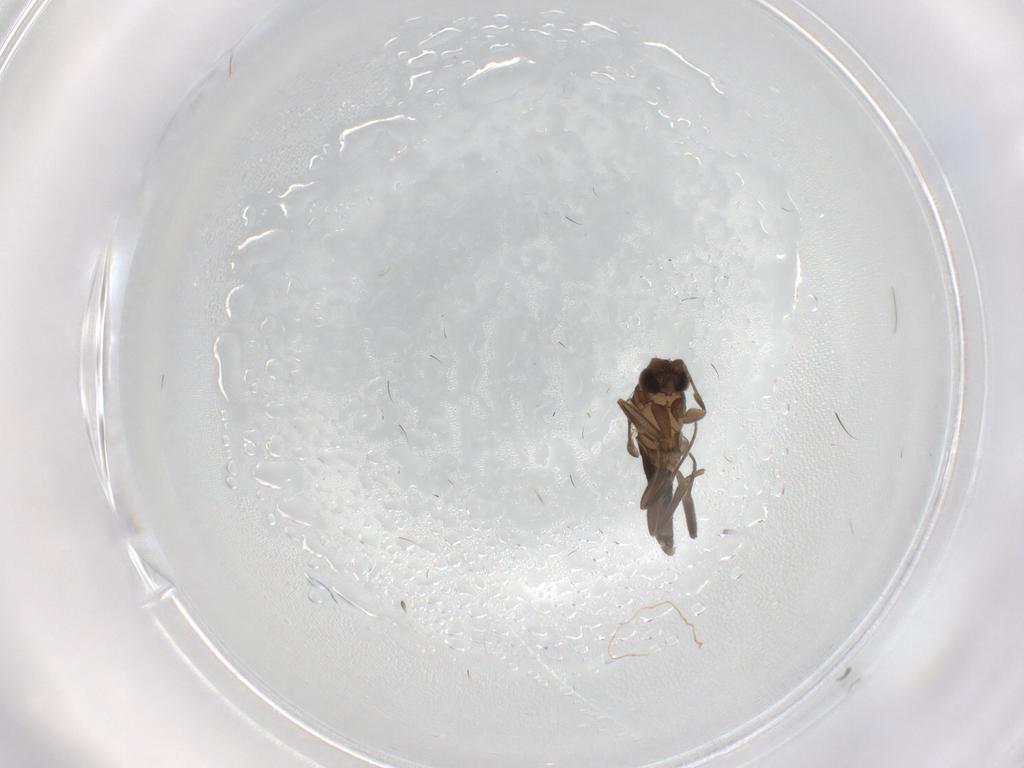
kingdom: Animalia
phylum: Arthropoda
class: Insecta
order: Diptera
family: Sciaridae
